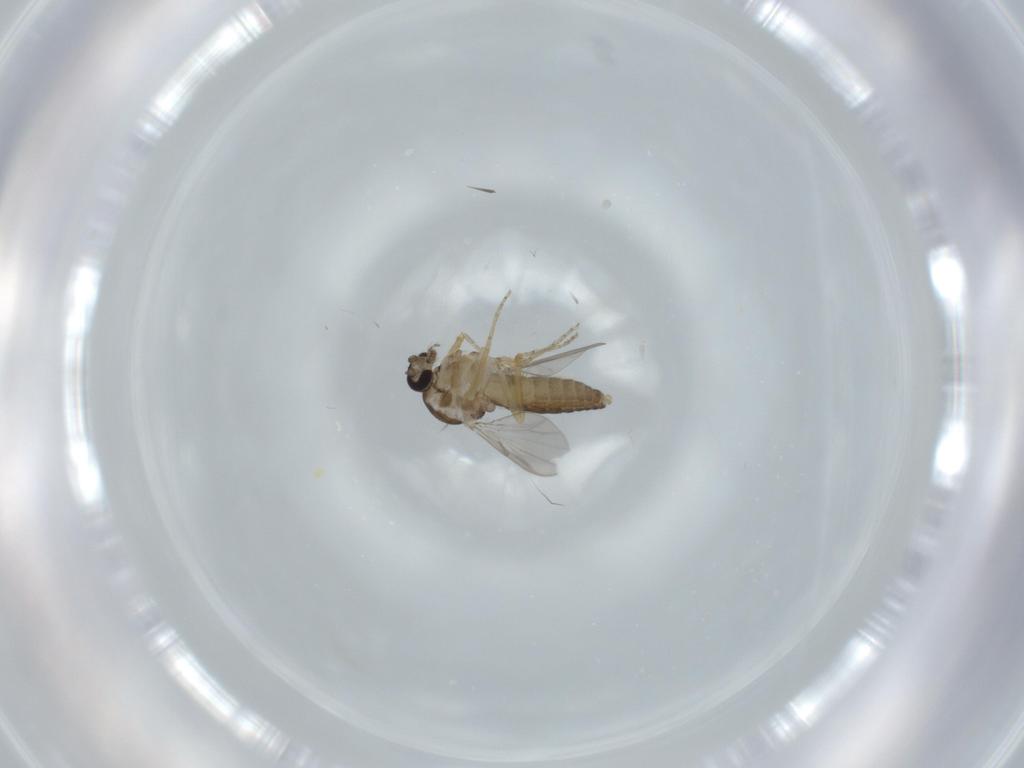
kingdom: Animalia
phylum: Arthropoda
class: Insecta
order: Diptera
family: Ceratopogonidae
